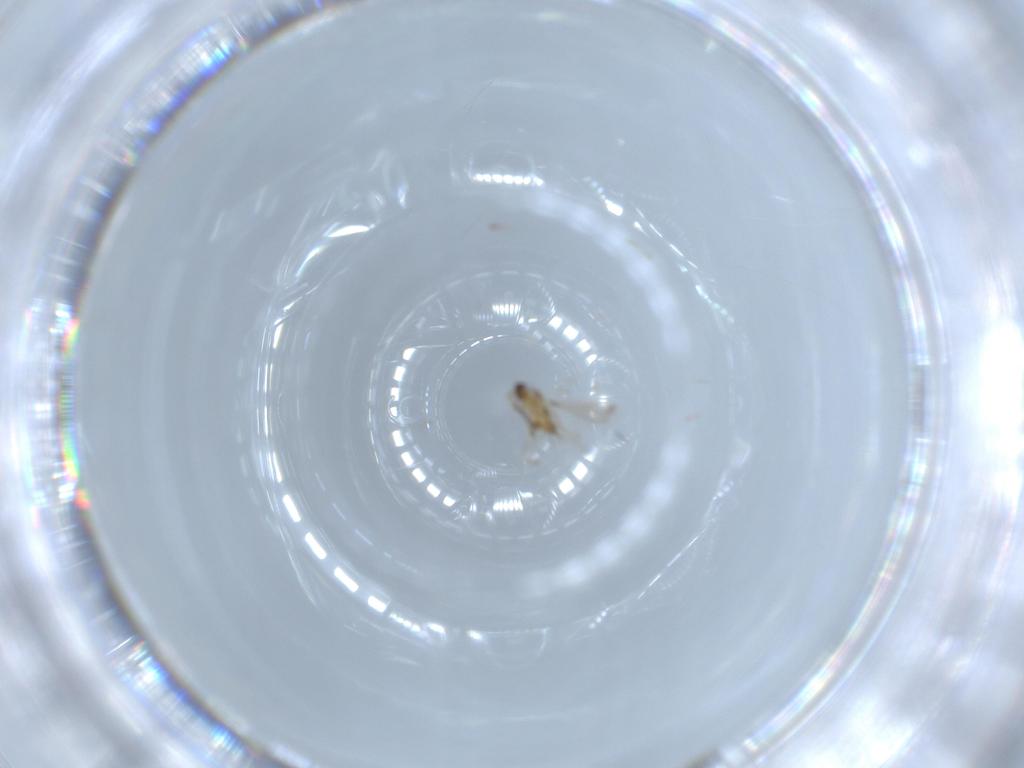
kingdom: Animalia
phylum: Arthropoda
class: Insecta
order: Hymenoptera
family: Mymaridae
